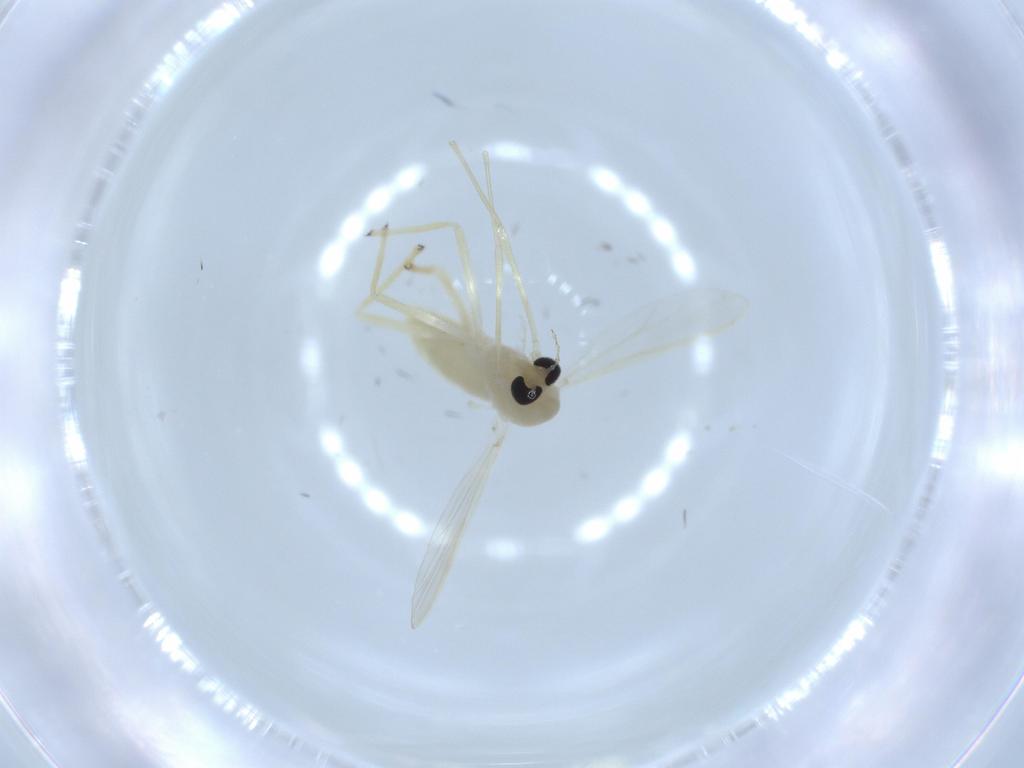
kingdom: Animalia
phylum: Arthropoda
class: Insecta
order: Diptera
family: Chironomidae
